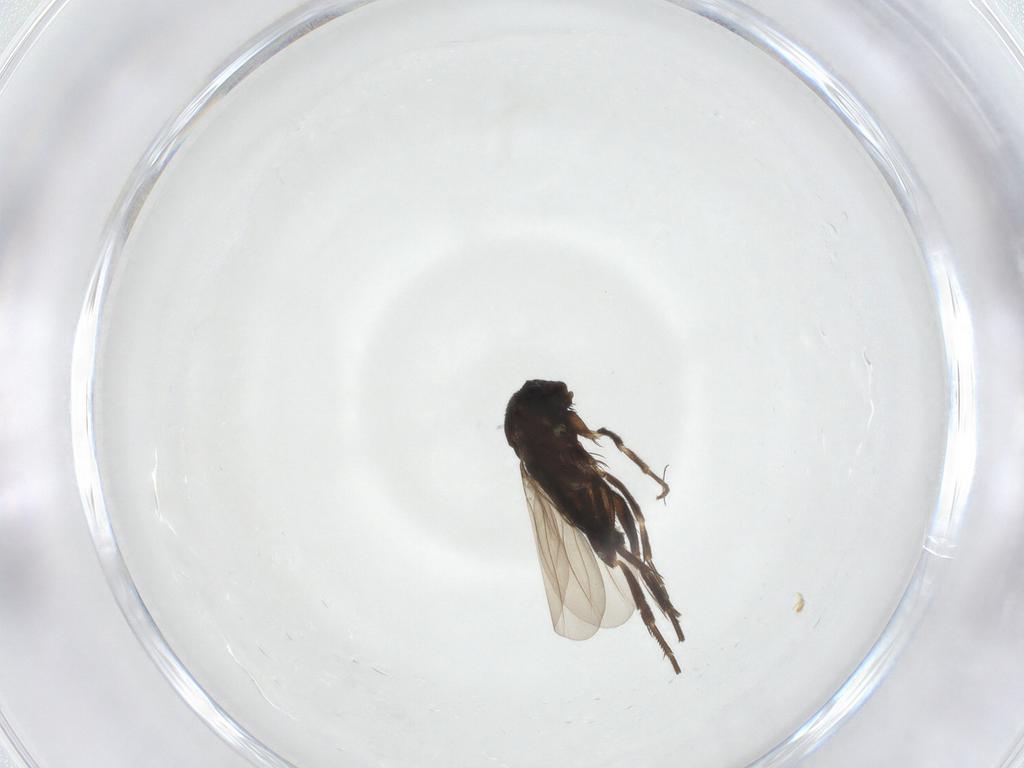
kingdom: Animalia
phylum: Arthropoda
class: Insecta
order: Diptera
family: Phoridae
